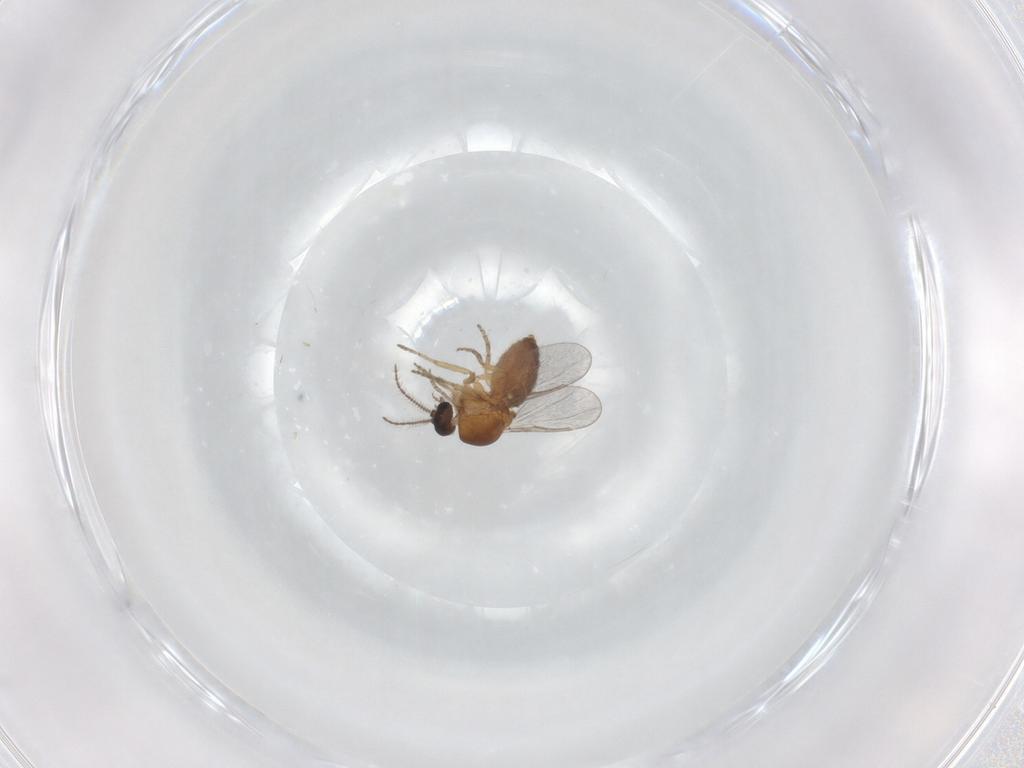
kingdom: Animalia
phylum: Arthropoda
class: Insecta
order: Diptera
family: Ceratopogonidae
